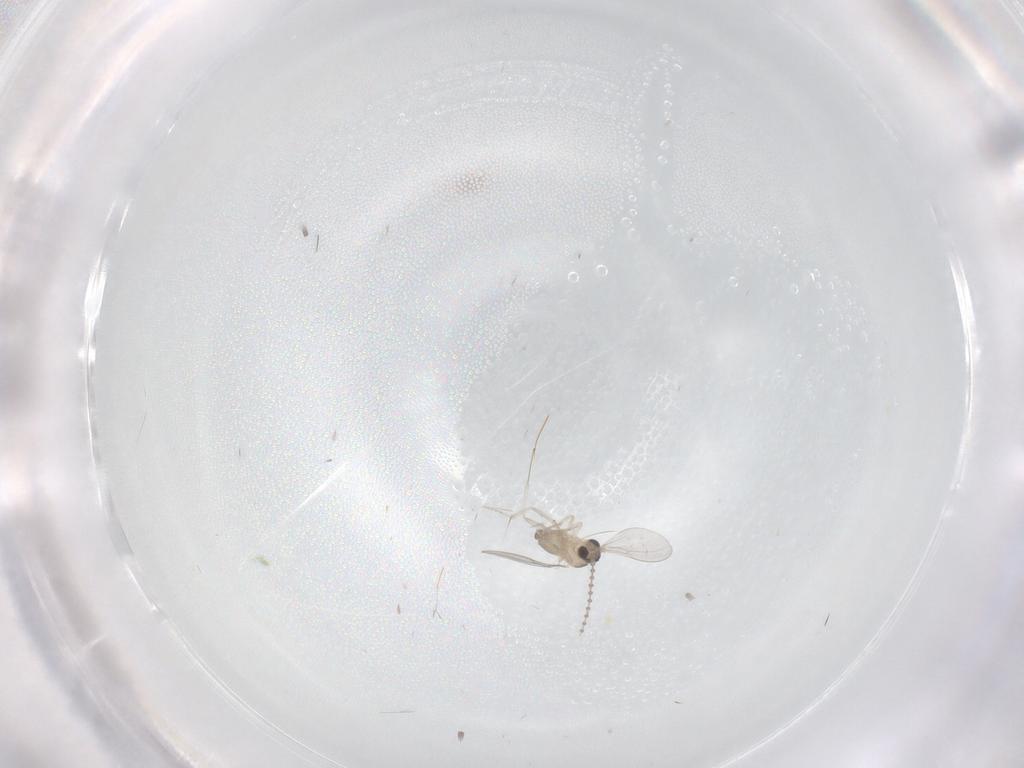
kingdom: Animalia
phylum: Arthropoda
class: Insecta
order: Diptera
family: Cecidomyiidae
